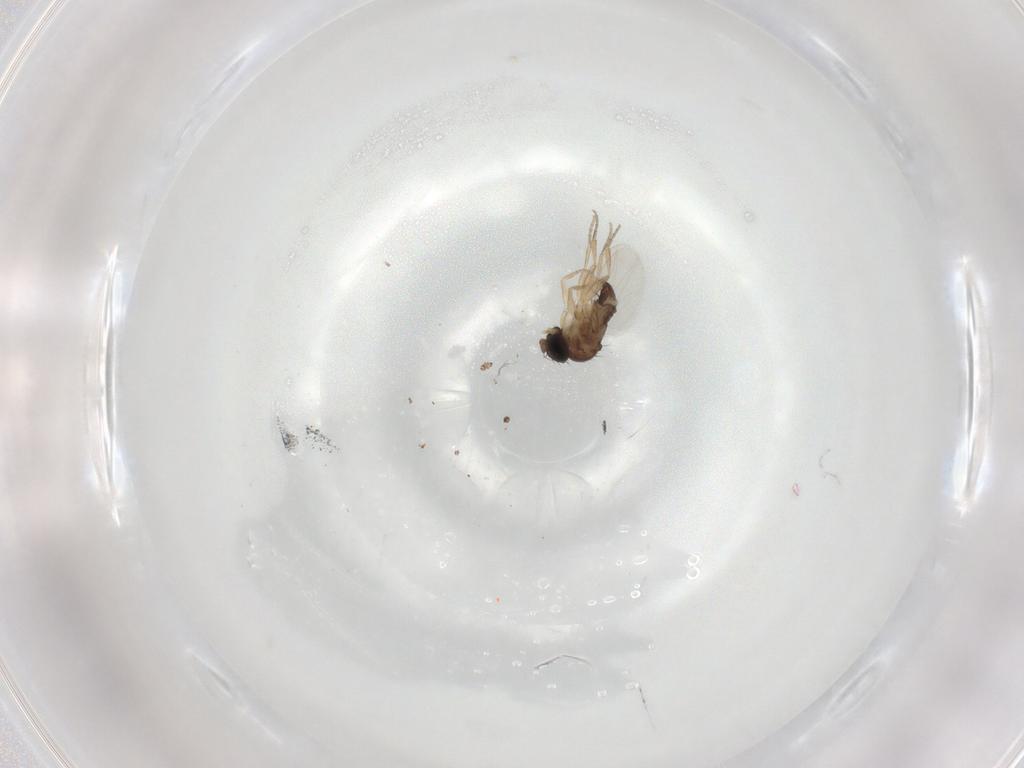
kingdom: Animalia
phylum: Arthropoda
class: Insecta
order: Diptera
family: Phoridae
